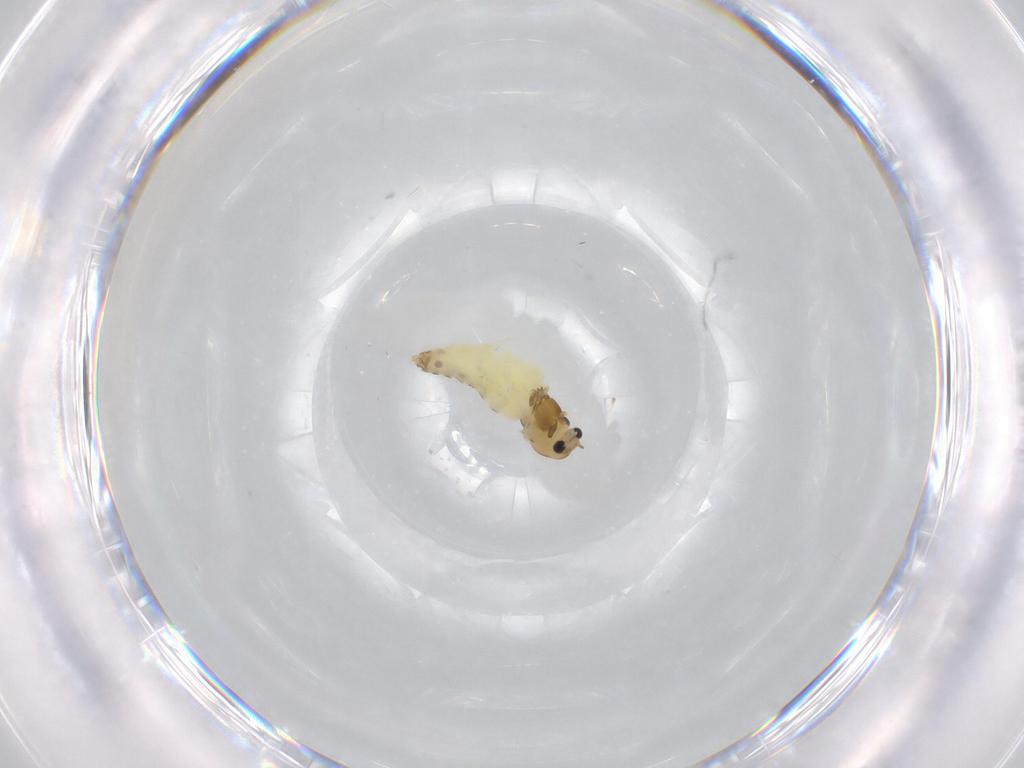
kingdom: Animalia
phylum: Arthropoda
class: Insecta
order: Diptera
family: Chironomidae
